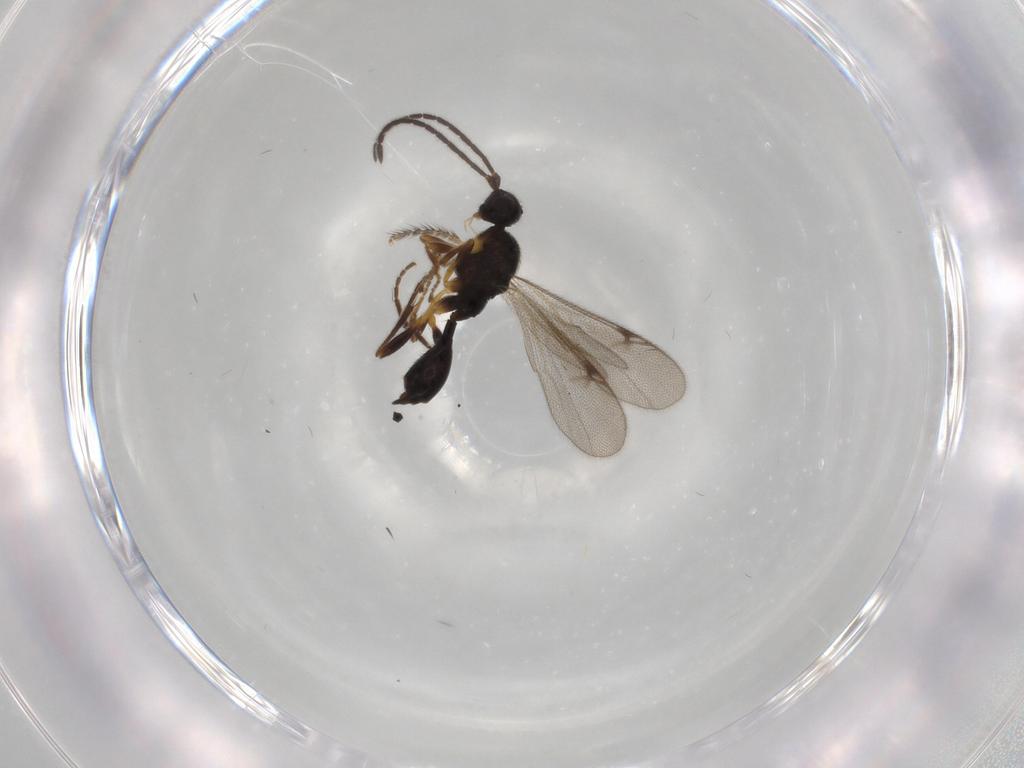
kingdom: Animalia
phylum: Arthropoda
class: Insecta
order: Hymenoptera
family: Proctotrupidae
